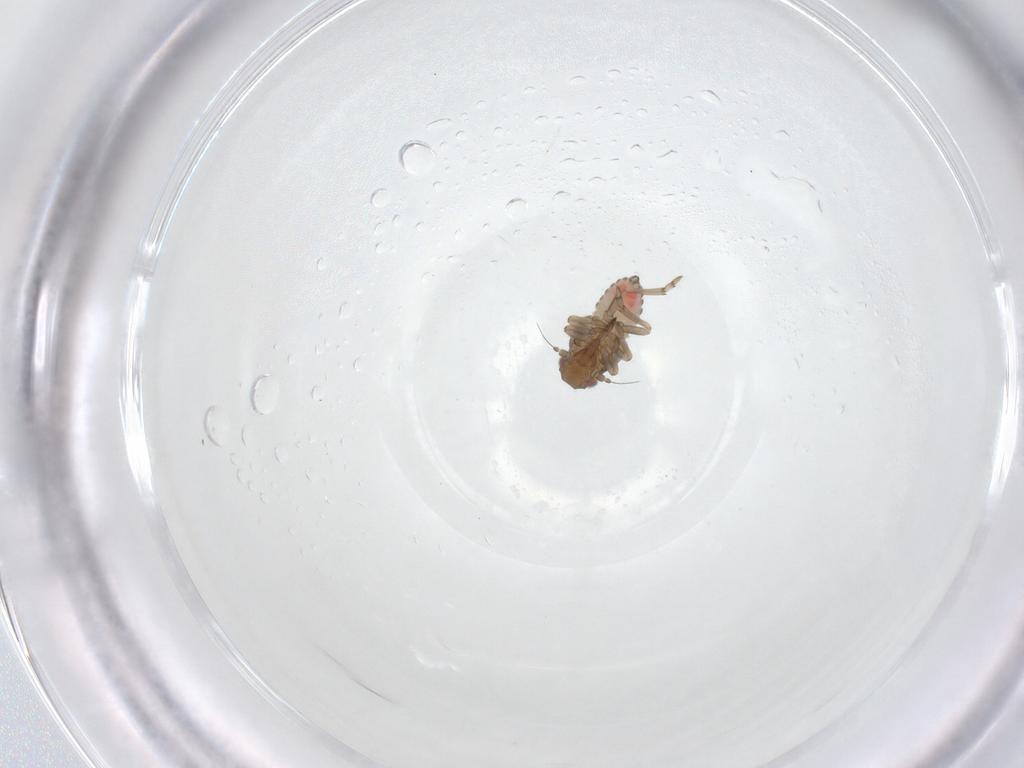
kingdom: Animalia
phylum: Arthropoda
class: Insecta
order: Hemiptera
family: Tropiduchidae
